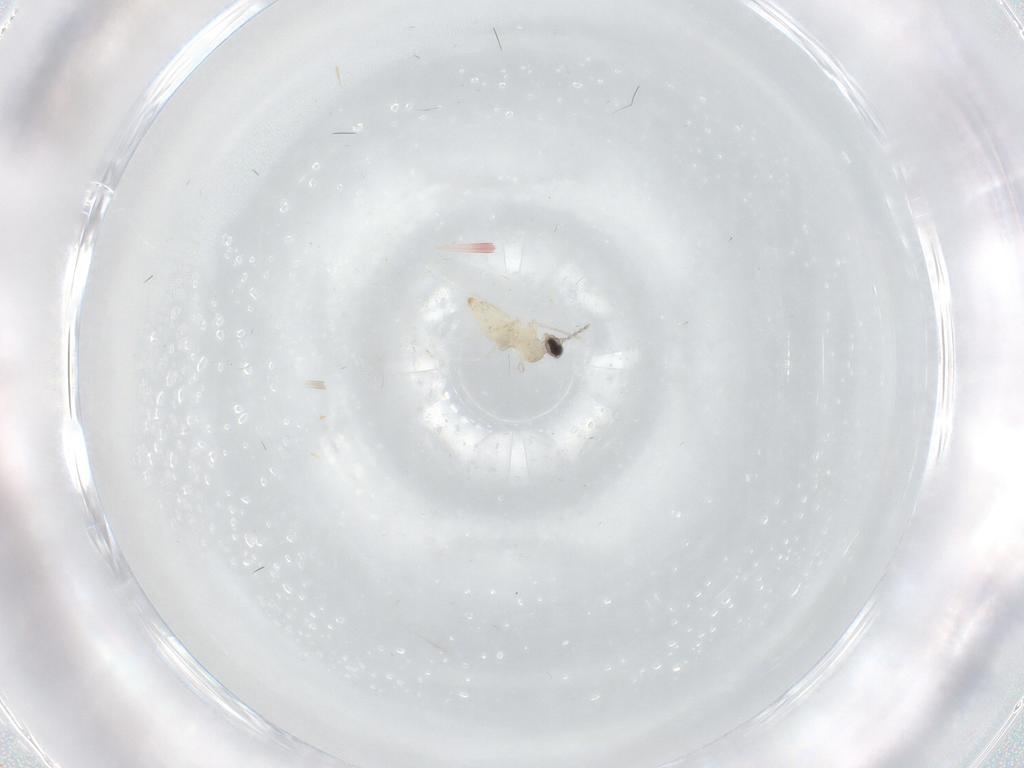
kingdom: Animalia
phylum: Arthropoda
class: Insecta
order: Diptera
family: Cecidomyiidae
